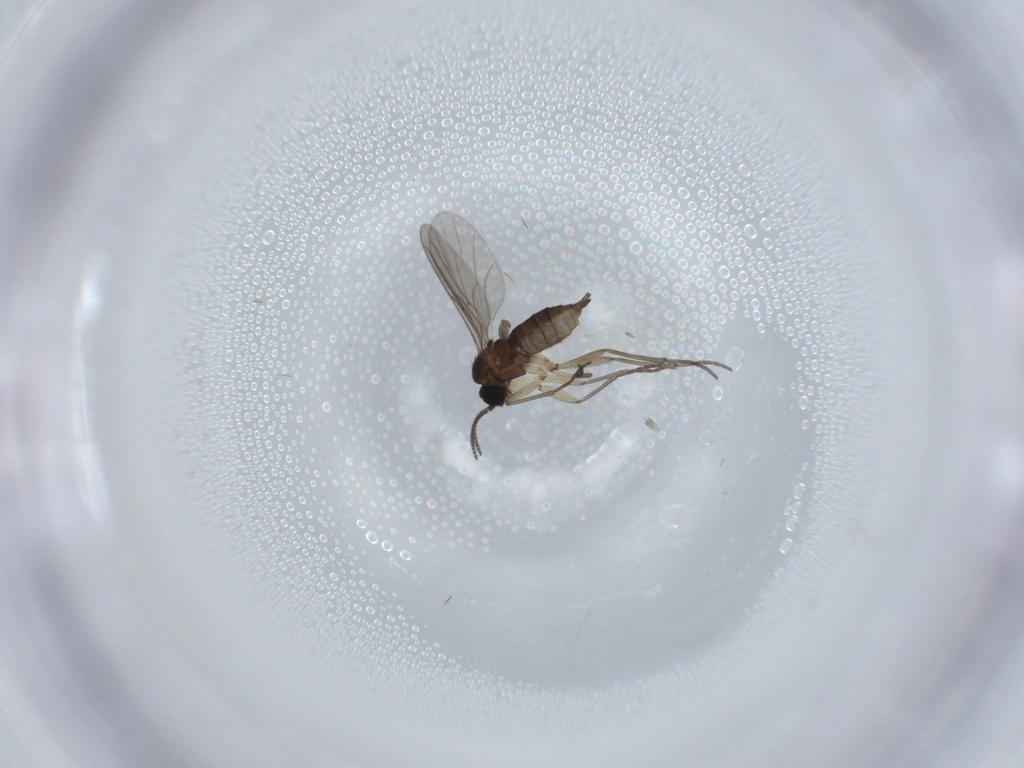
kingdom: Animalia
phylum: Arthropoda
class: Insecta
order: Diptera
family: Sciaridae
